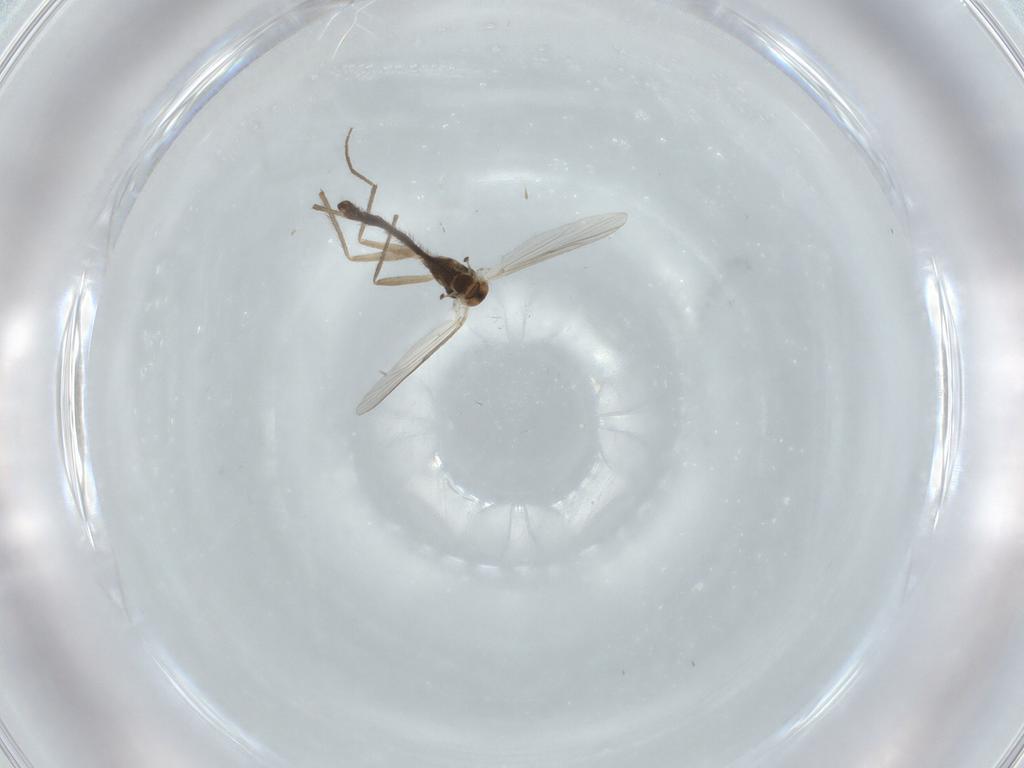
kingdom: Animalia
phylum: Arthropoda
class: Insecta
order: Diptera
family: Chironomidae
